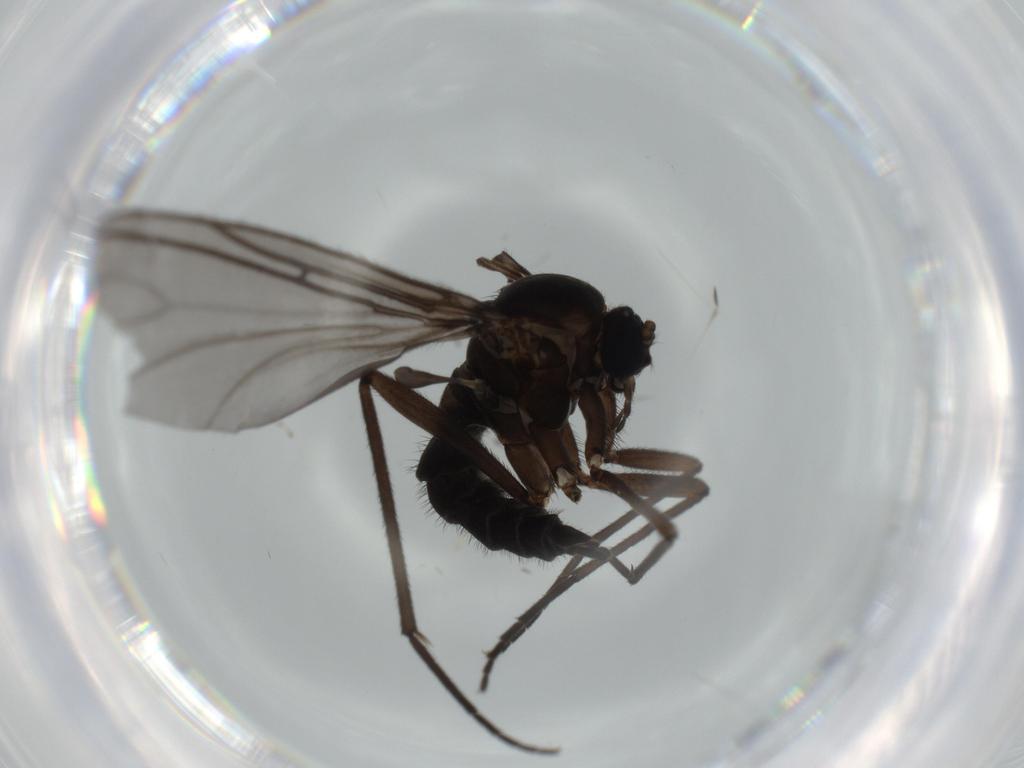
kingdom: Animalia
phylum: Arthropoda
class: Insecta
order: Diptera
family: Sciaridae
